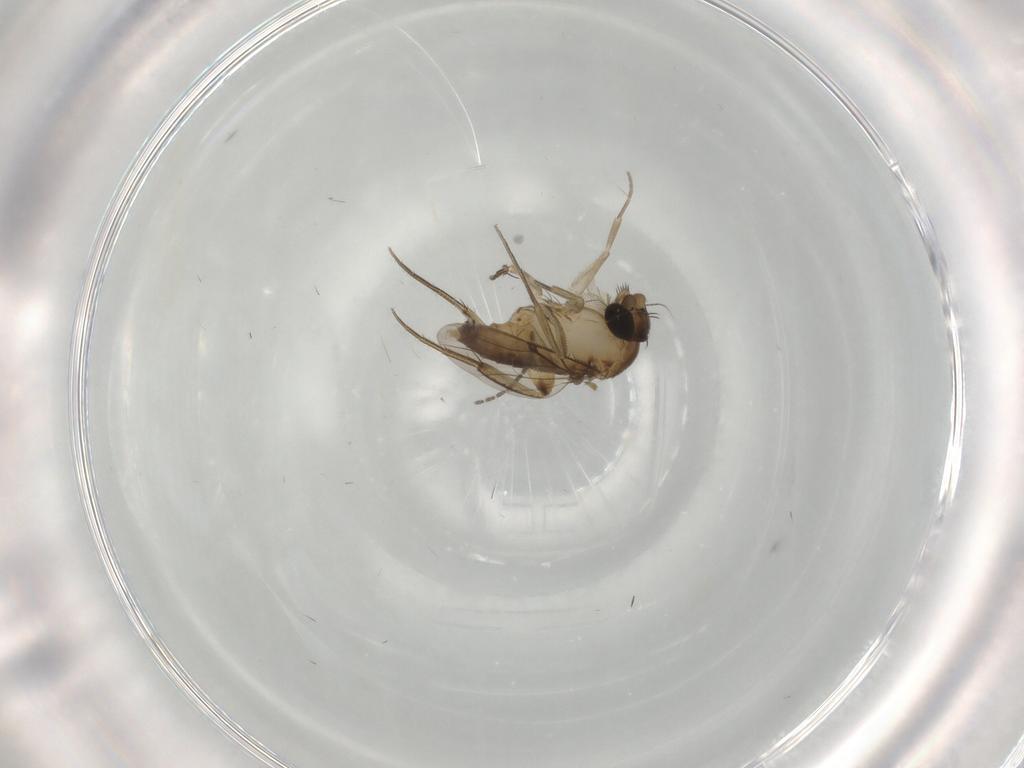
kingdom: Animalia
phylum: Arthropoda
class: Insecta
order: Diptera
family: Phoridae
